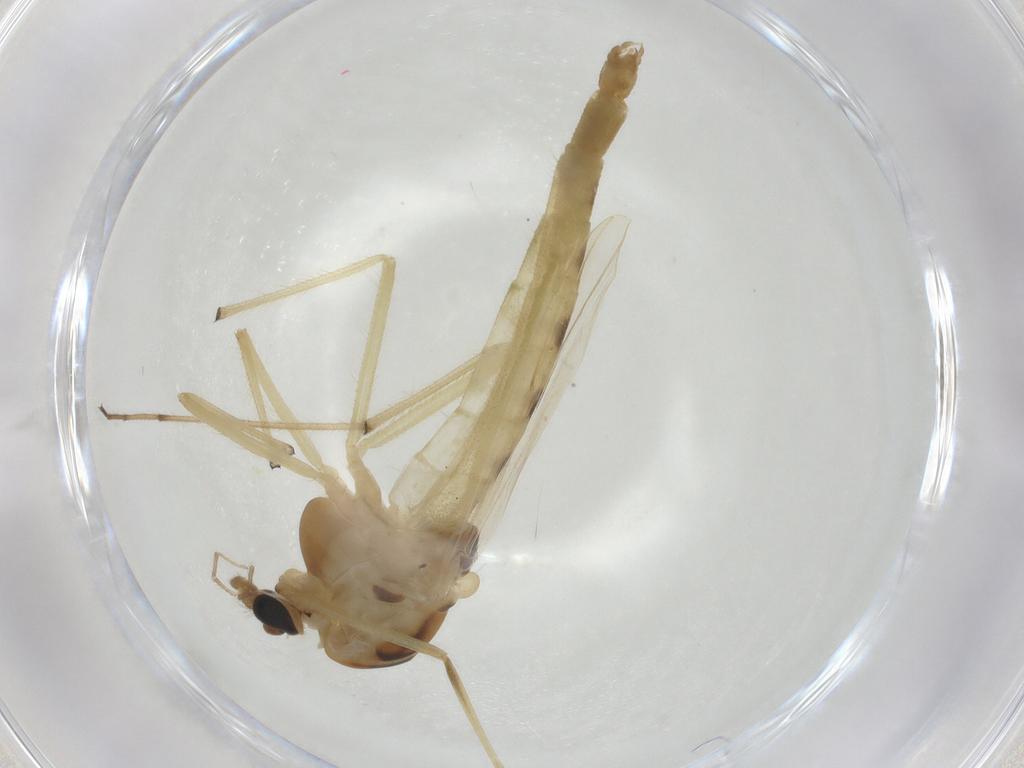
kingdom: Animalia
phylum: Arthropoda
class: Insecta
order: Diptera
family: Chironomidae
